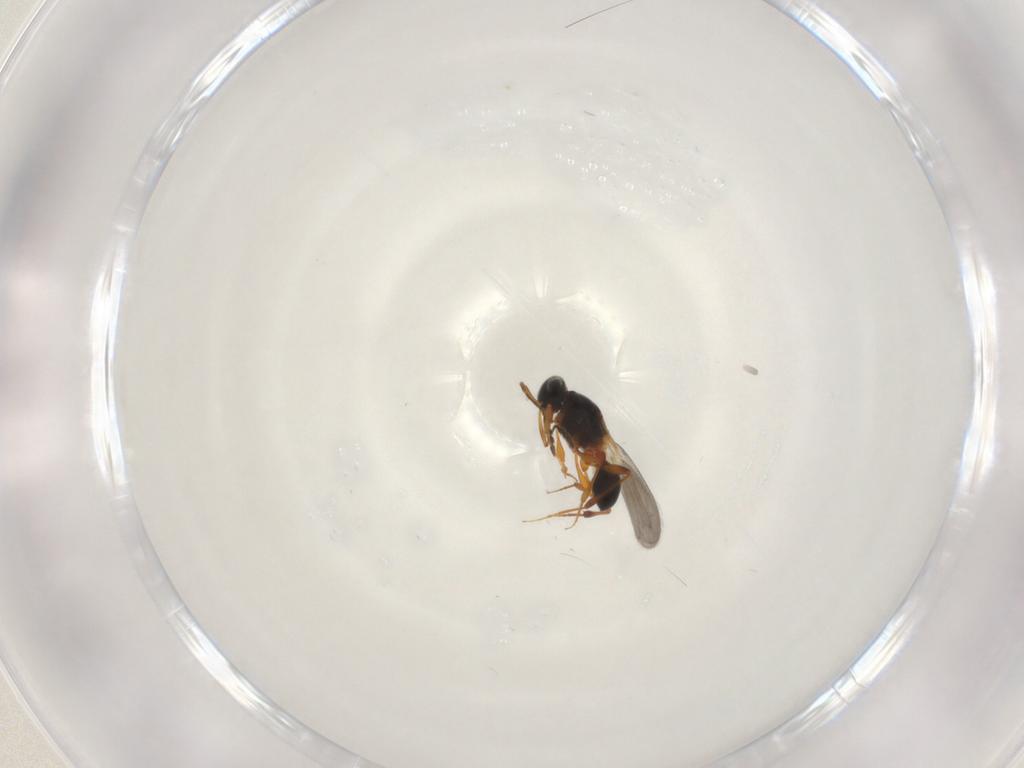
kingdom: Animalia
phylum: Arthropoda
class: Insecta
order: Hymenoptera
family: Platygastridae
